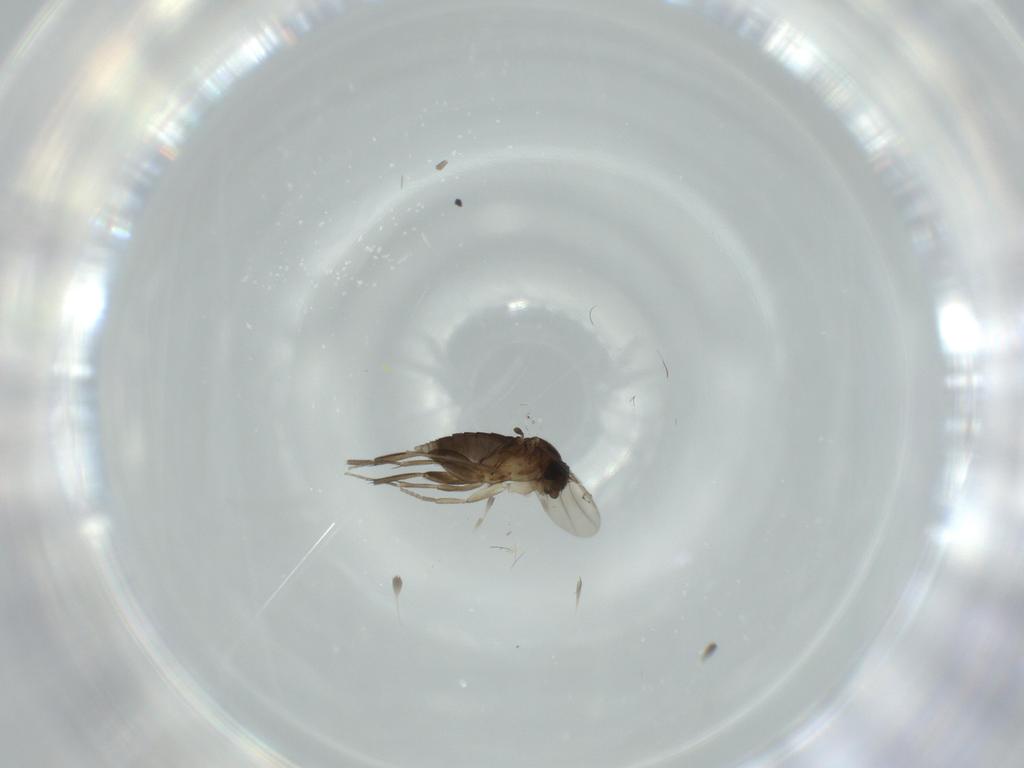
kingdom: Animalia
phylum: Arthropoda
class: Insecta
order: Diptera
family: Phoridae
